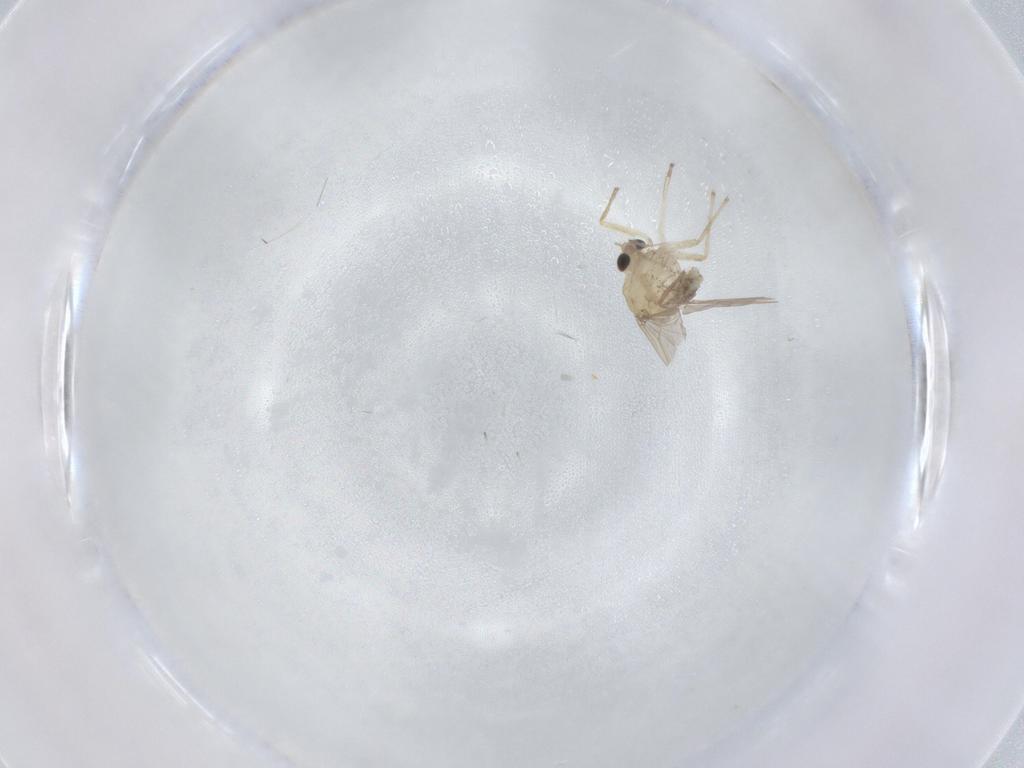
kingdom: Animalia
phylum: Arthropoda
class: Insecta
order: Diptera
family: Chironomidae
